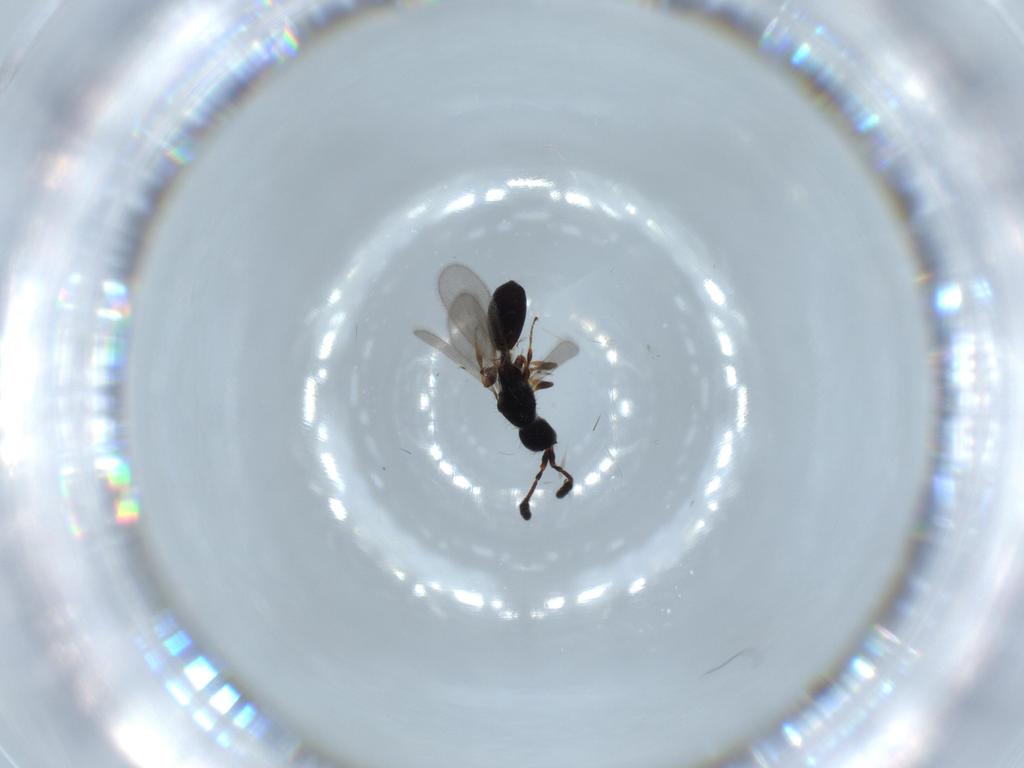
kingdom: Animalia
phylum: Arthropoda
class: Insecta
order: Hymenoptera
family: Diapriidae
